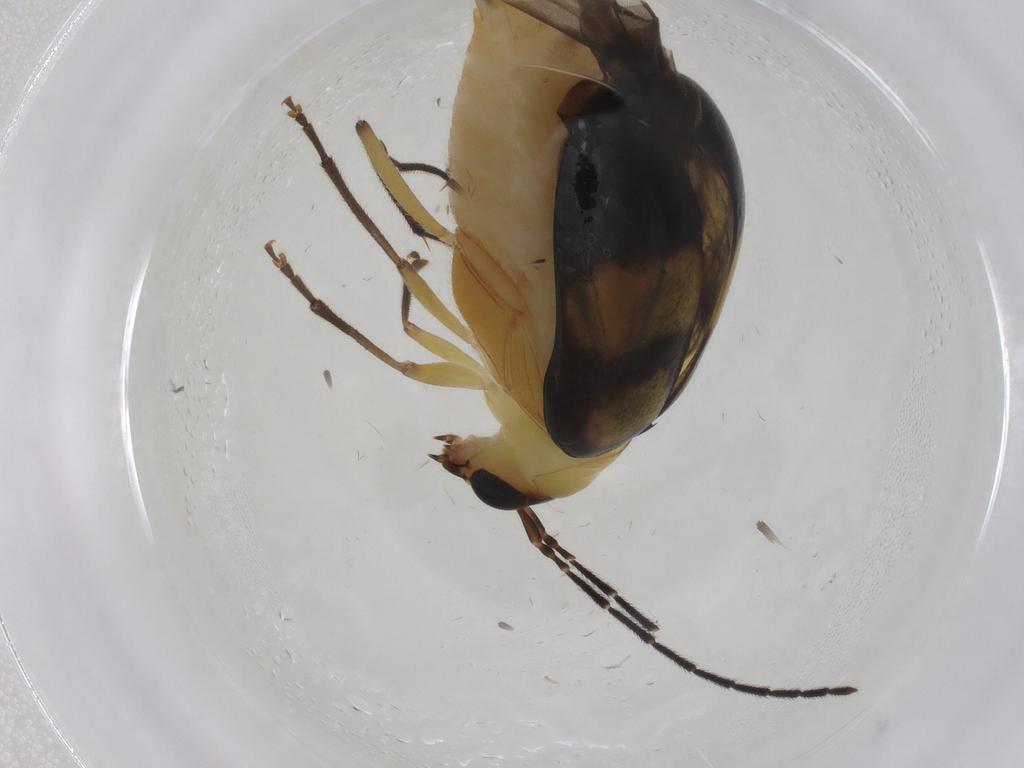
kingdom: Animalia
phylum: Arthropoda
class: Insecta
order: Coleoptera
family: Chrysomelidae
